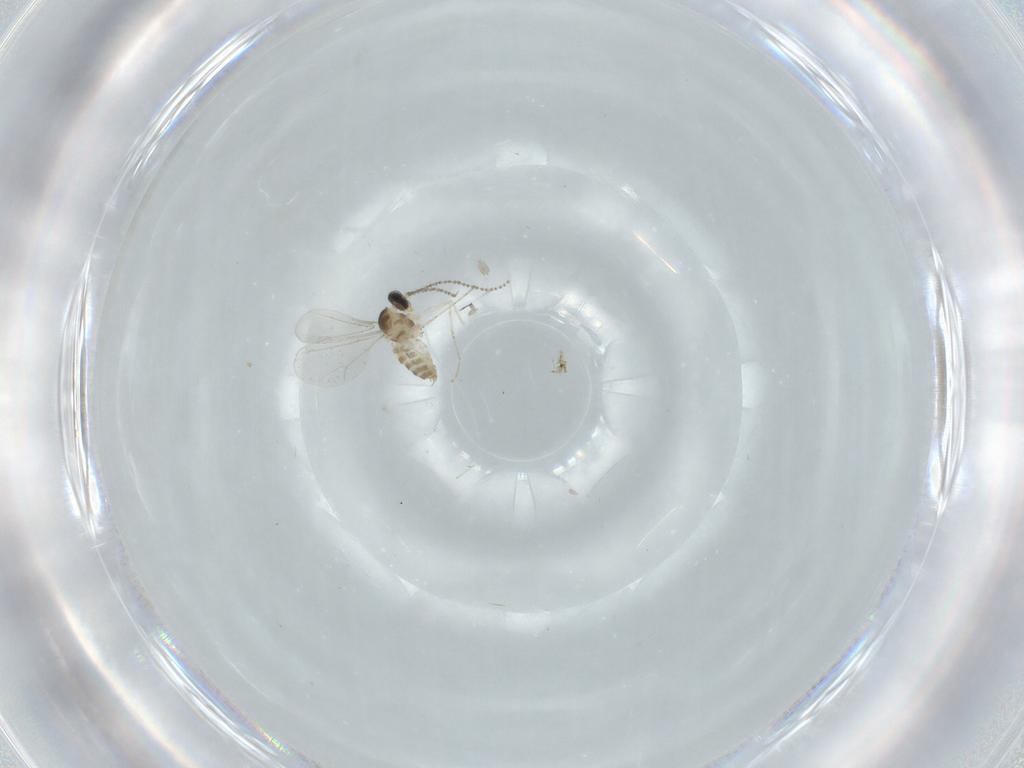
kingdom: Animalia
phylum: Arthropoda
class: Insecta
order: Diptera
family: Cecidomyiidae
